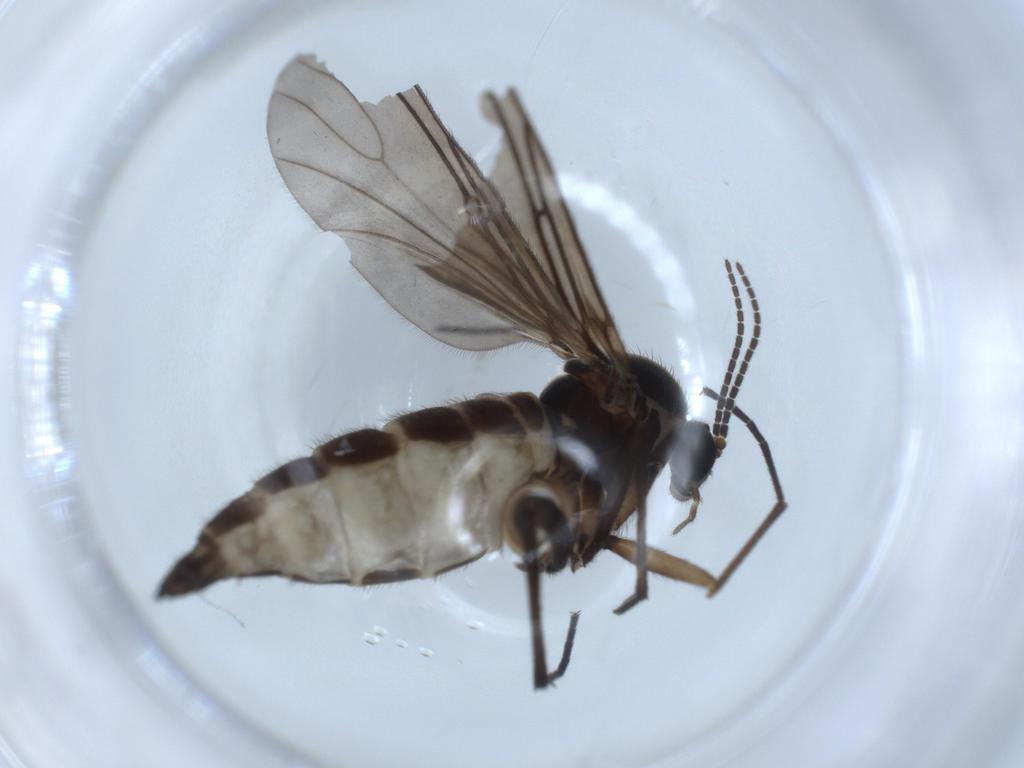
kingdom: Animalia
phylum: Arthropoda
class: Insecta
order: Diptera
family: Sciaridae
